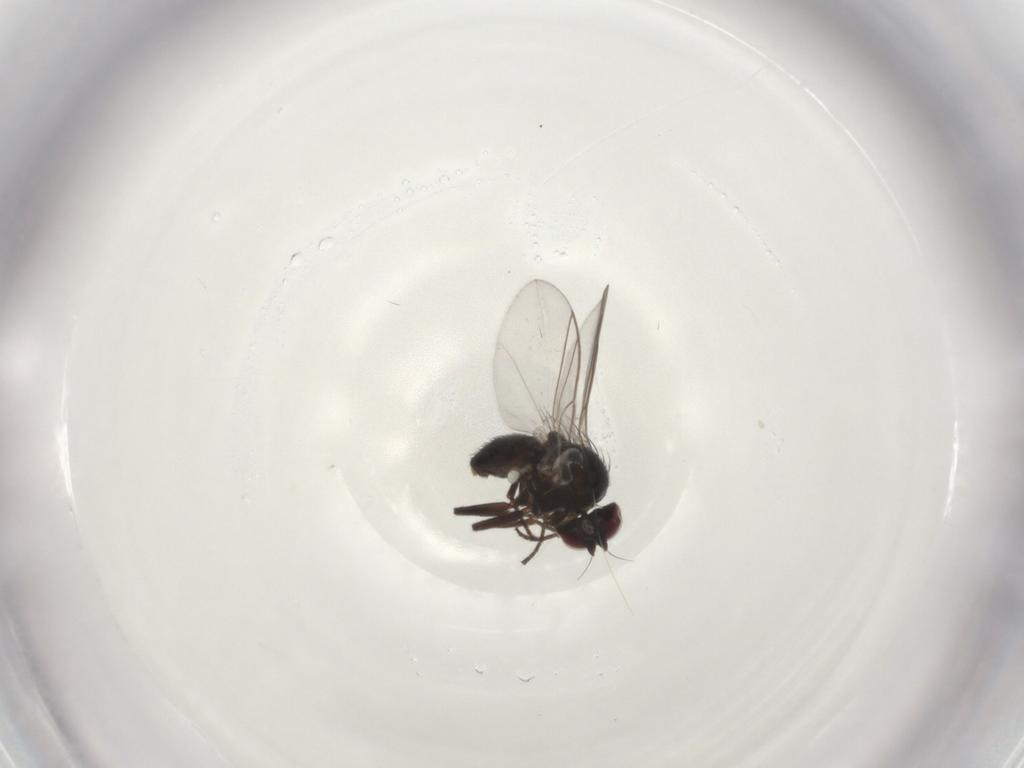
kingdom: Animalia
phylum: Arthropoda
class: Insecta
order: Diptera
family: Chironomidae
